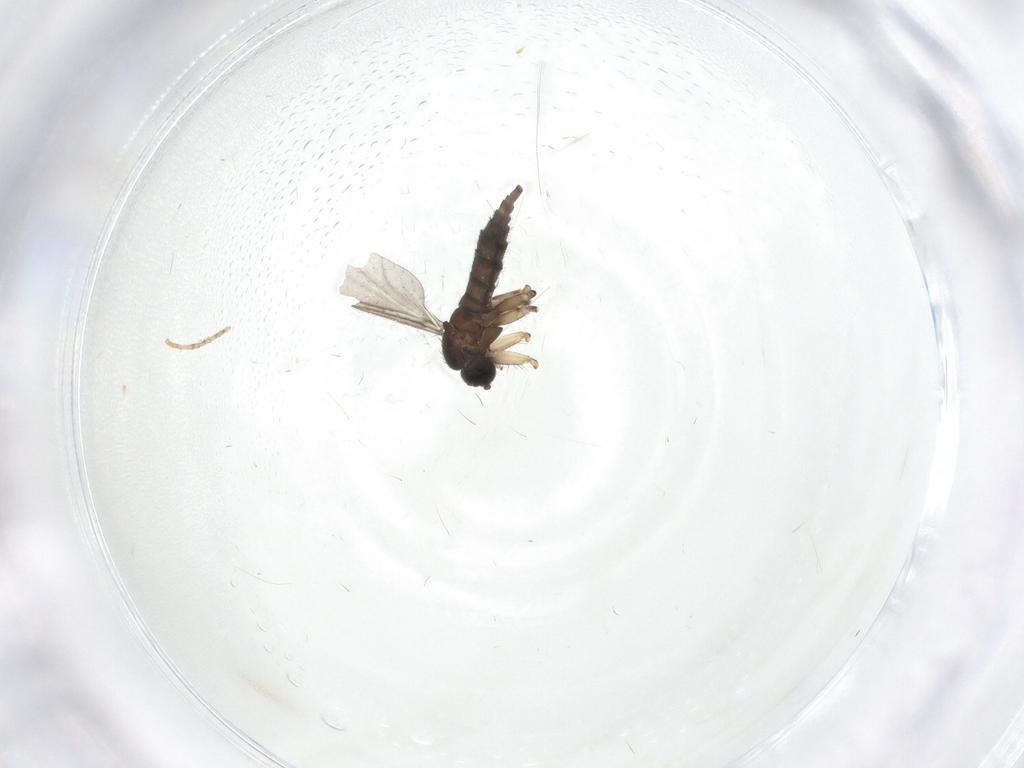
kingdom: Animalia
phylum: Arthropoda
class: Insecta
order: Diptera
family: Sciaridae
